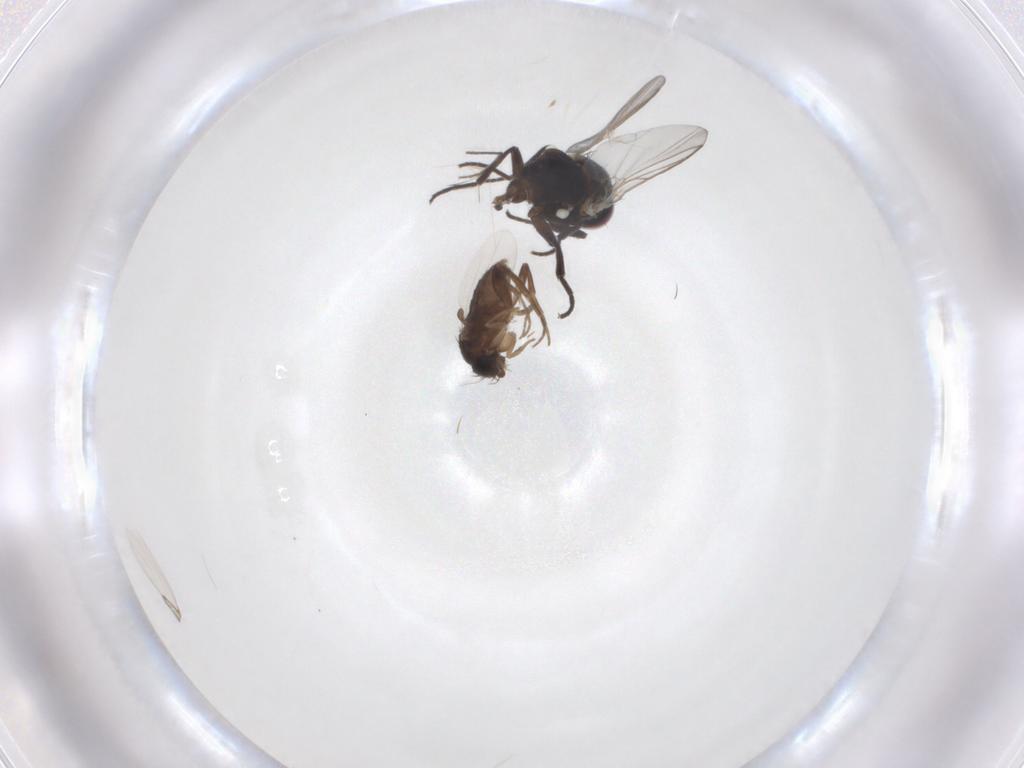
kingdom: Animalia
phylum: Arthropoda
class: Insecta
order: Diptera
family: Agromyzidae
